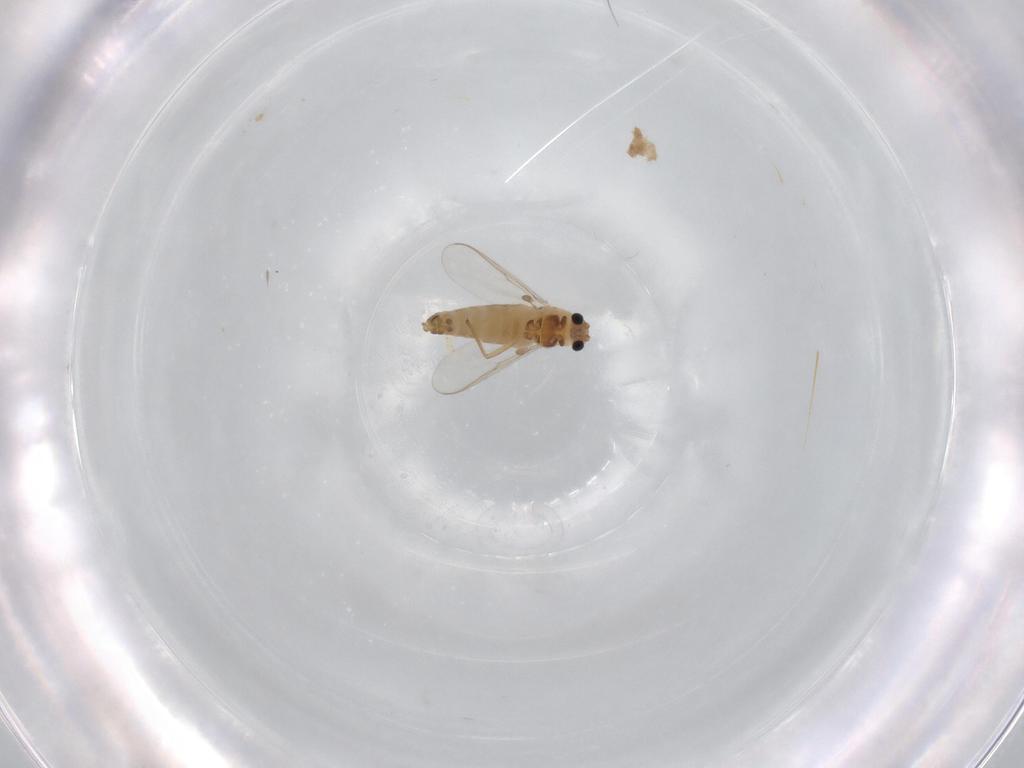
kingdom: Animalia
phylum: Arthropoda
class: Insecta
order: Diptera
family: Chironomidae
